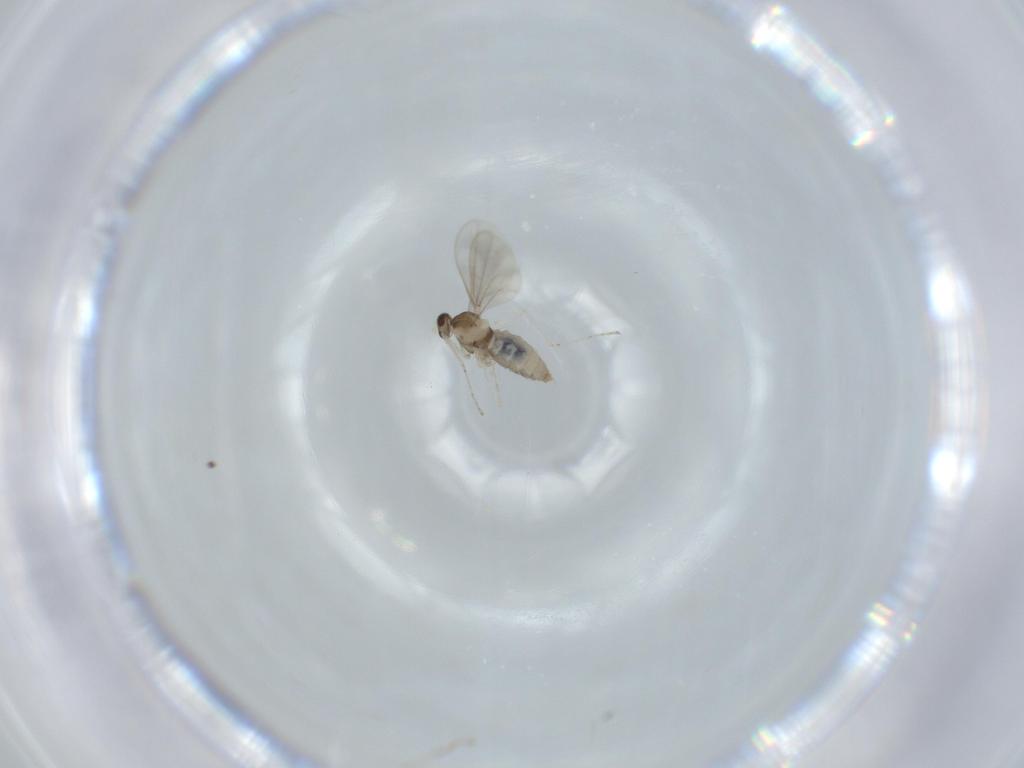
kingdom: Animalia
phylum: Arthropoda
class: Insecta
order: Diptera
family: Cecidomyiidae
